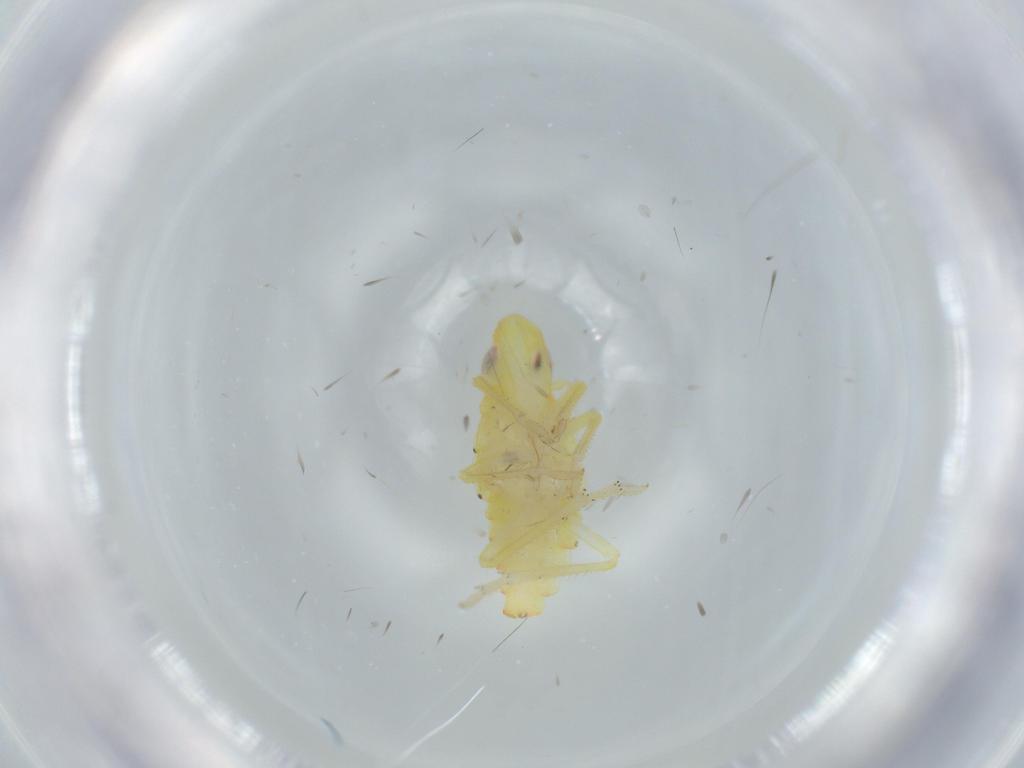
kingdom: Animalia
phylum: Arthropoda
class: Insecta
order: Hemiptera
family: Tropiduchidae
